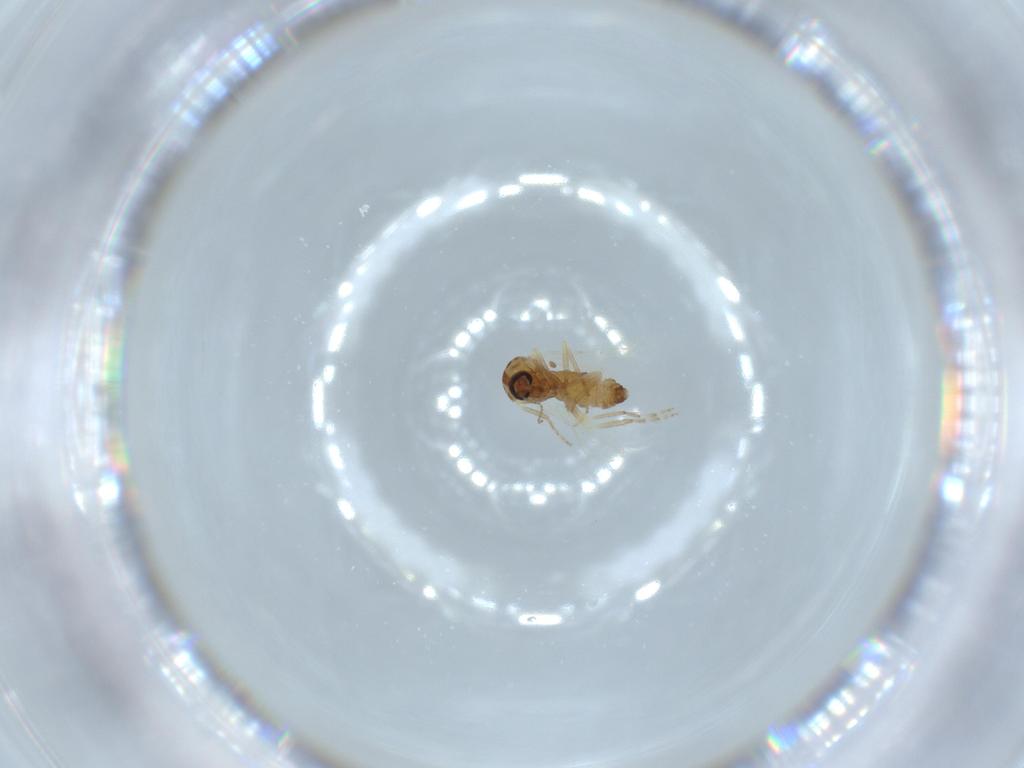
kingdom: Animalia
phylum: Arthropoda
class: Insecta
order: Diptera
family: Ceratopogonidae
